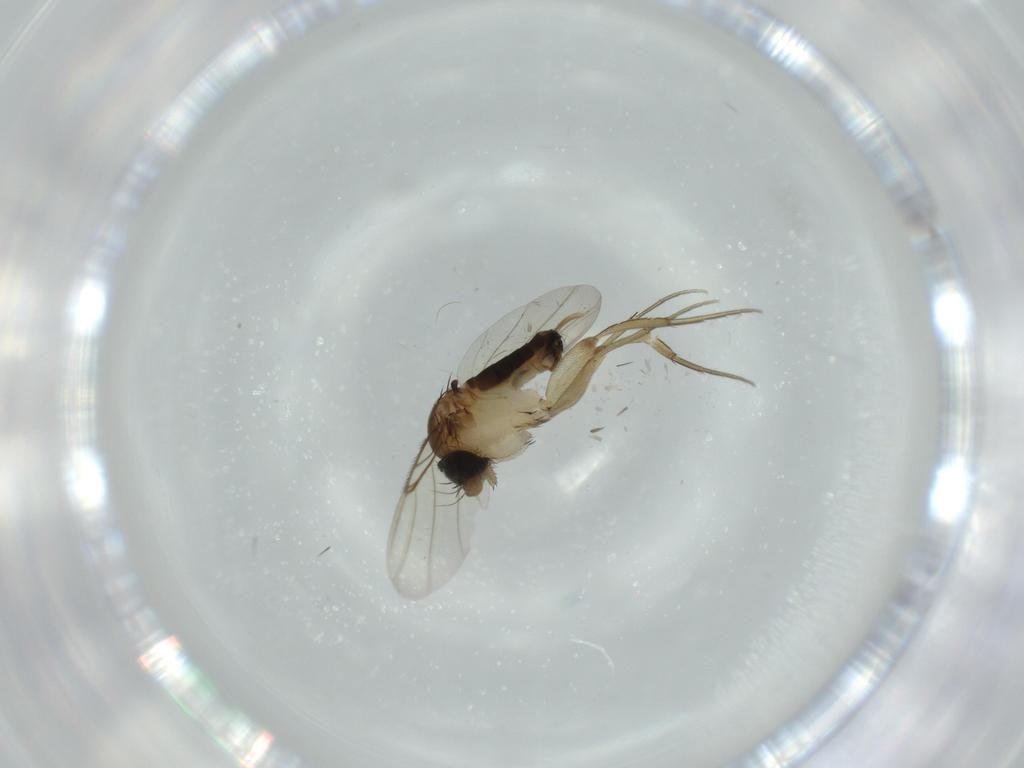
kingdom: Animalia
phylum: Arthropoda
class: Insecta
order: Diptera
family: Phoridae
